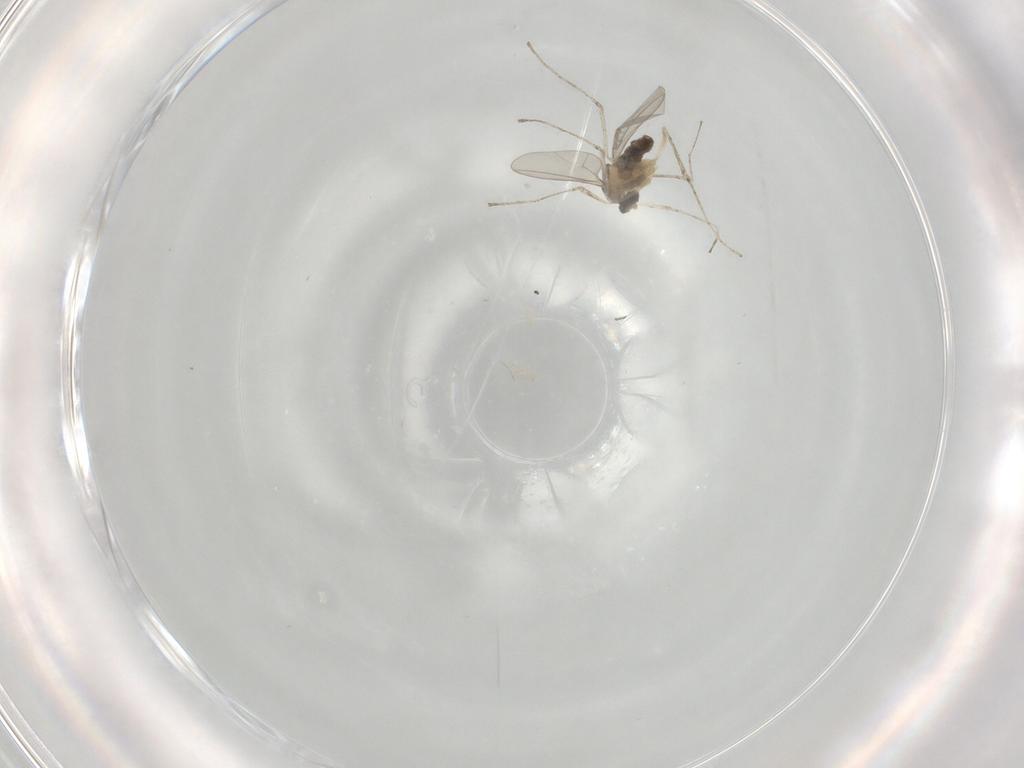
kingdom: Animalia
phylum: Arthropoda
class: Insecta
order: Diptera
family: Cecidomyiidae
